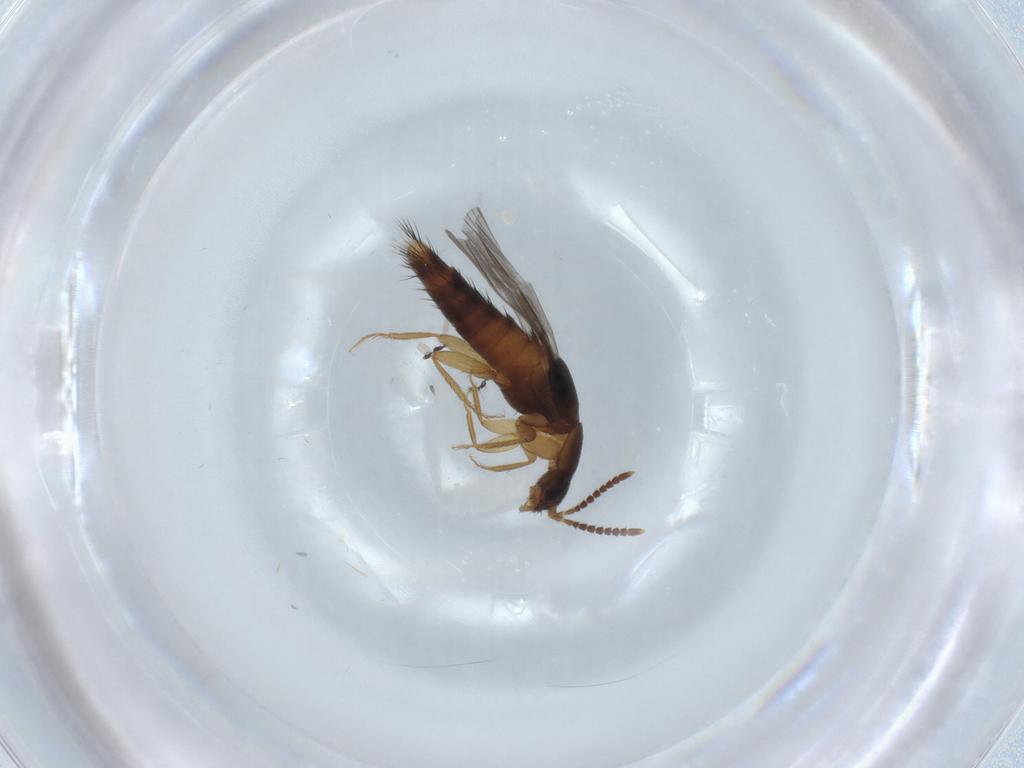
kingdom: Animalia
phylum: Arthropoda
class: Insecta
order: Coleoptera
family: Staphylinidae
